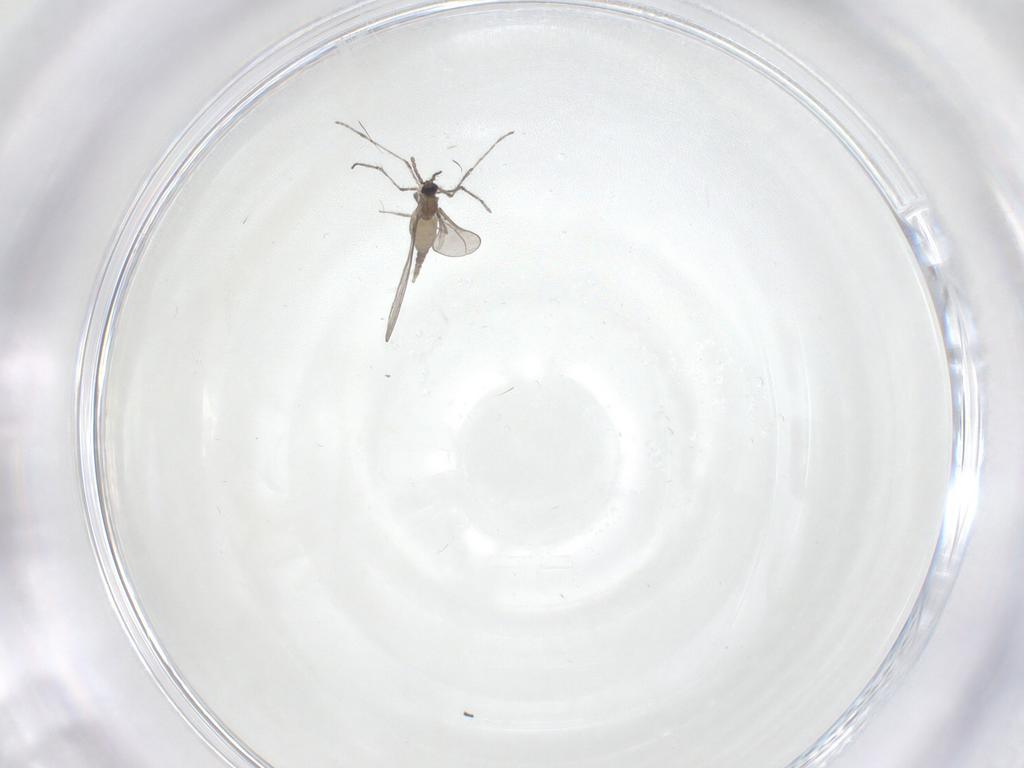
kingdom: Animalia
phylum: Arthropoda
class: Insecta
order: Diptera
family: Cecidomyiidae
